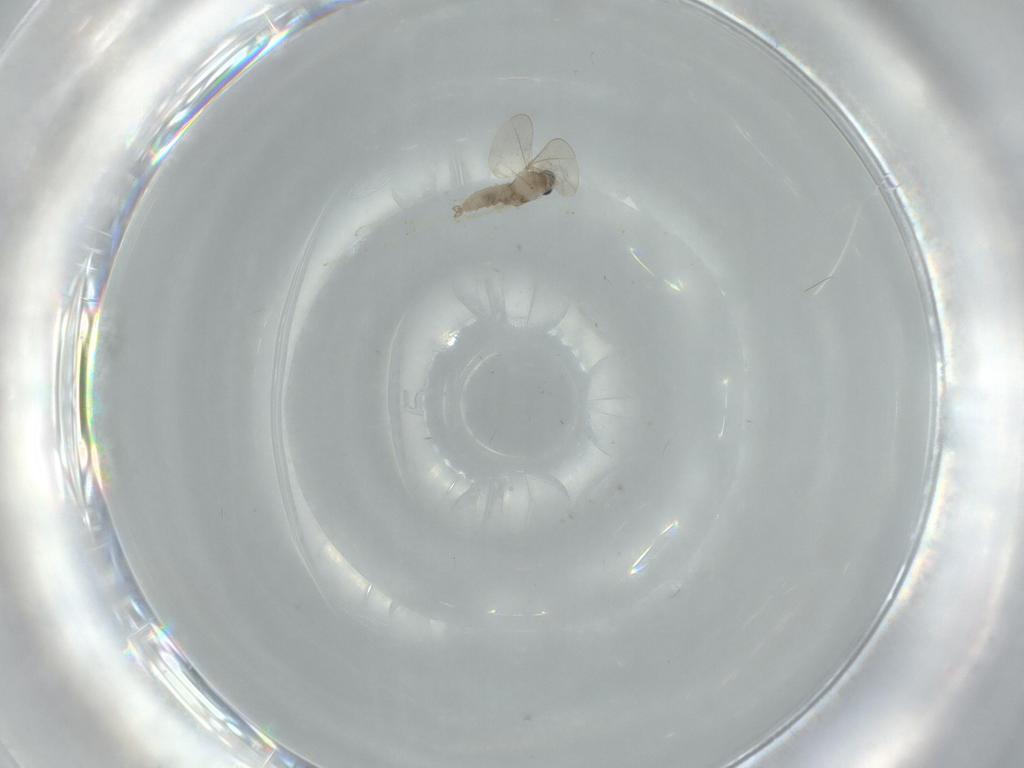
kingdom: Animalia
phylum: Arthropoda
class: Insecta
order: Diptera
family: Cecidomyiidae
